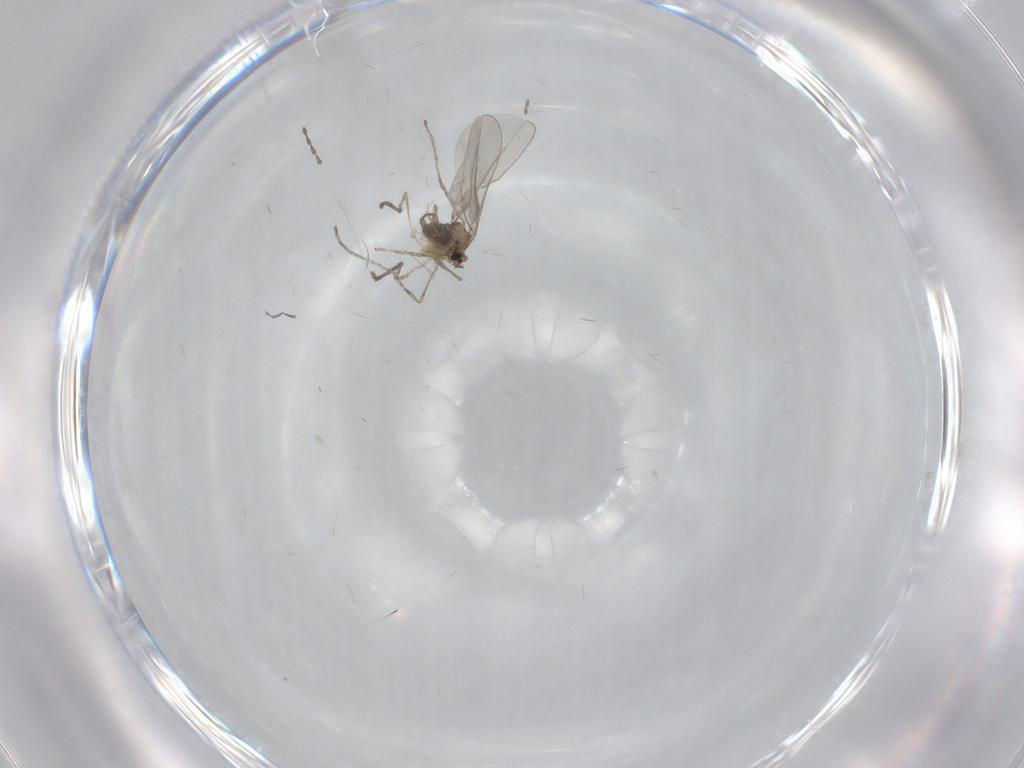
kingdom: Animalia
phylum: Arthropoda
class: Insecta
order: Diptera
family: Cecidomyiidae
